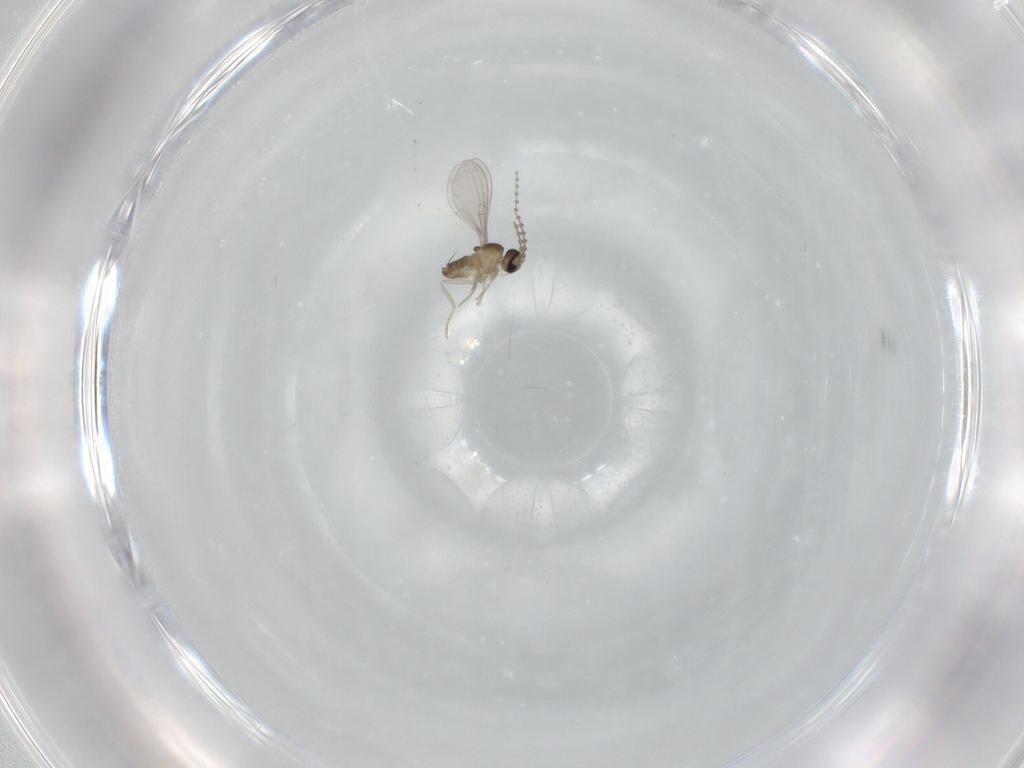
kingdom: Animalia
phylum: Arthropoda
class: Insecta
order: Diptera
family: Cecidomyiidae
